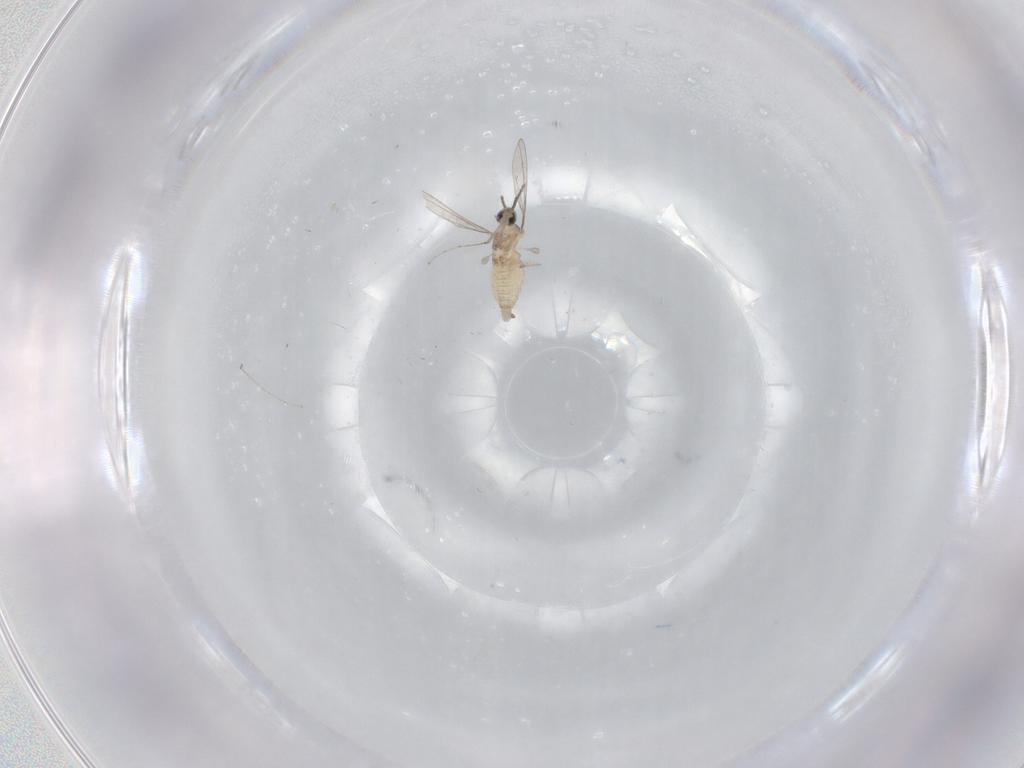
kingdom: Animalia
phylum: Arthropoda
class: Insecta
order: Diptera
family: Cecidomyiidae
